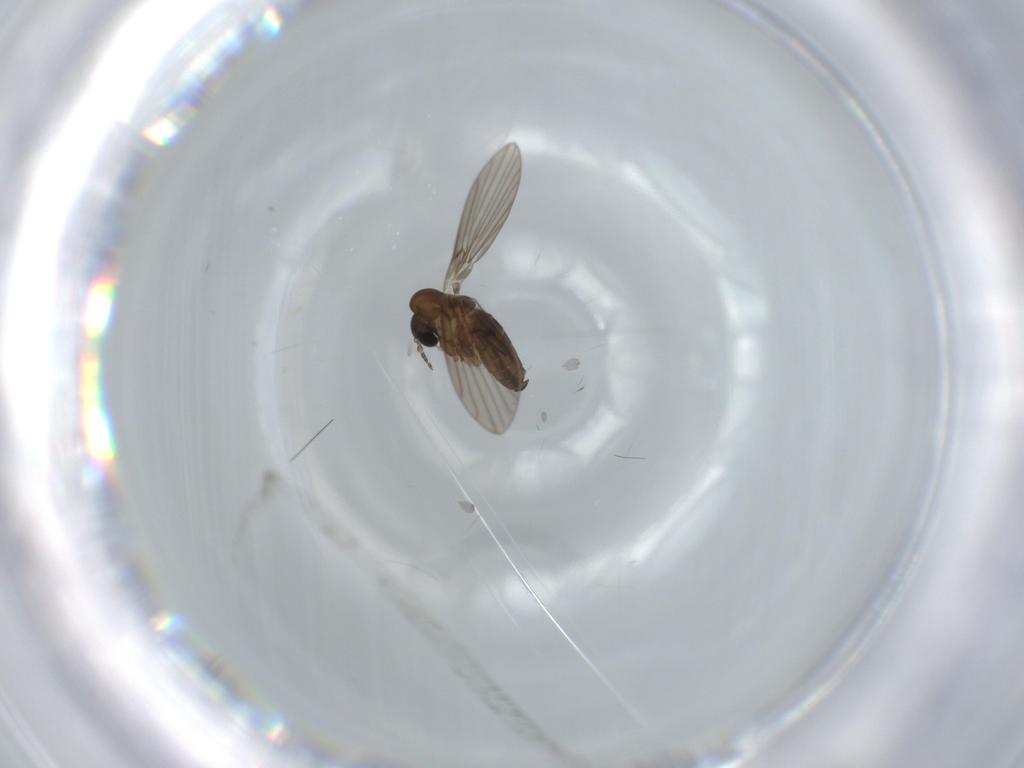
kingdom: Animalia
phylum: Arthropoda
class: Insecta
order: Diptera
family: Psychodidae
